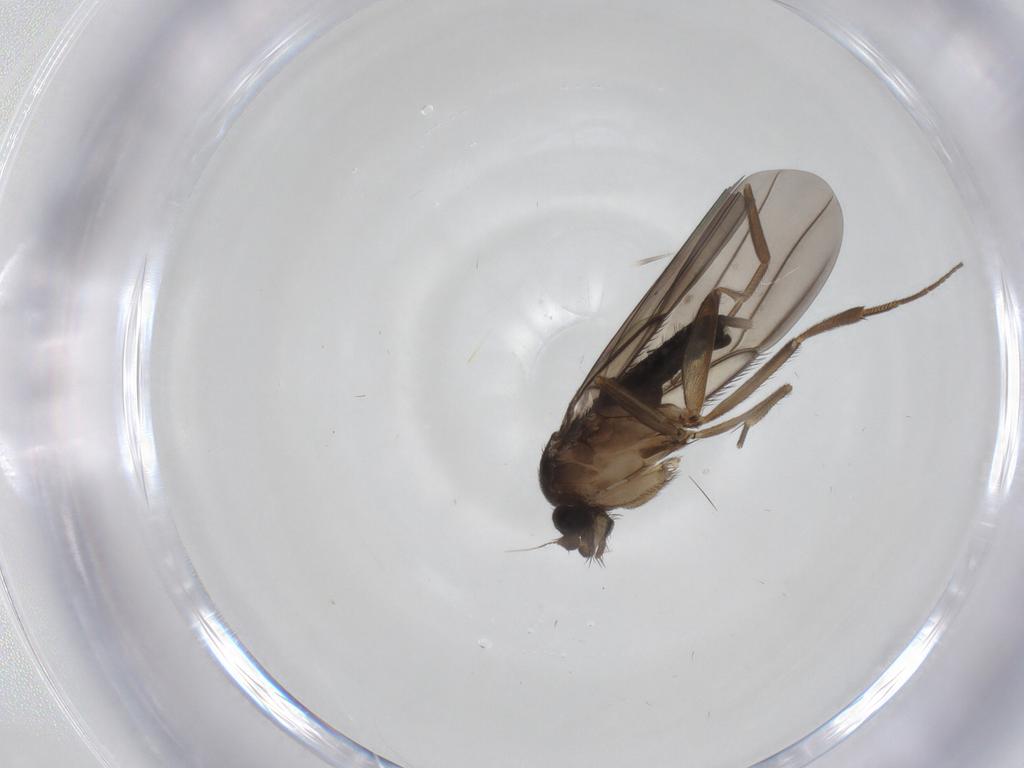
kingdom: Animalia
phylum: Arthropoda
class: Insecta
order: Diptera
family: Phoridae
